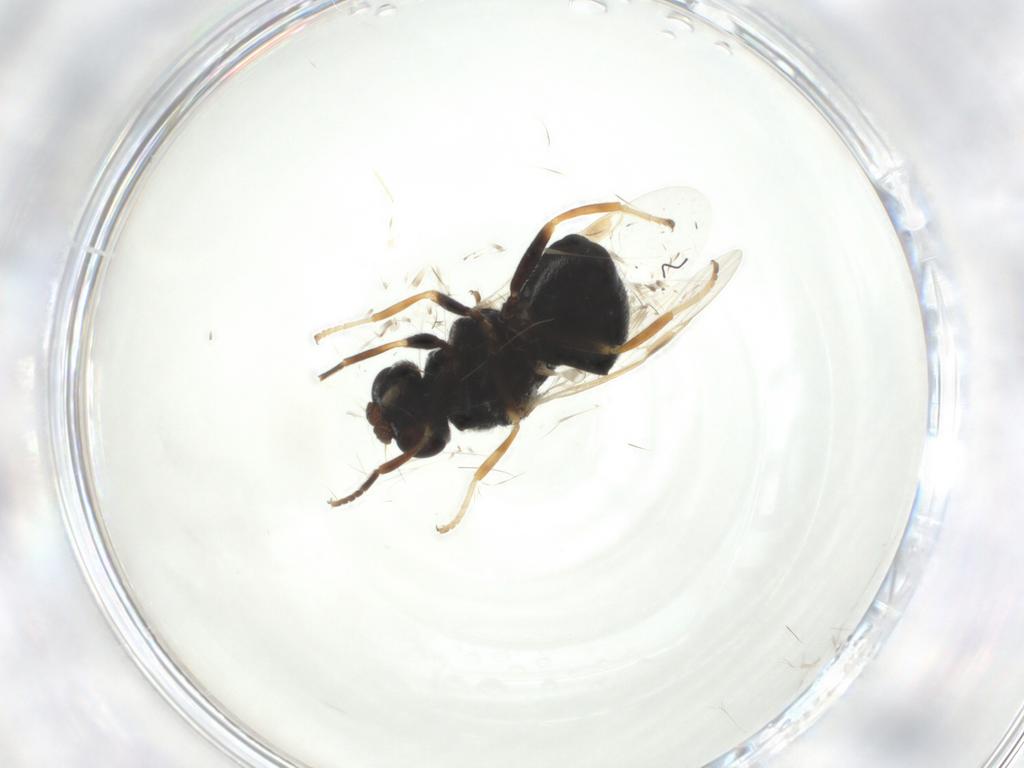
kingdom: Animalia
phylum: Arthropoda
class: Insecta
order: Diptera
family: Stratiomyidae
